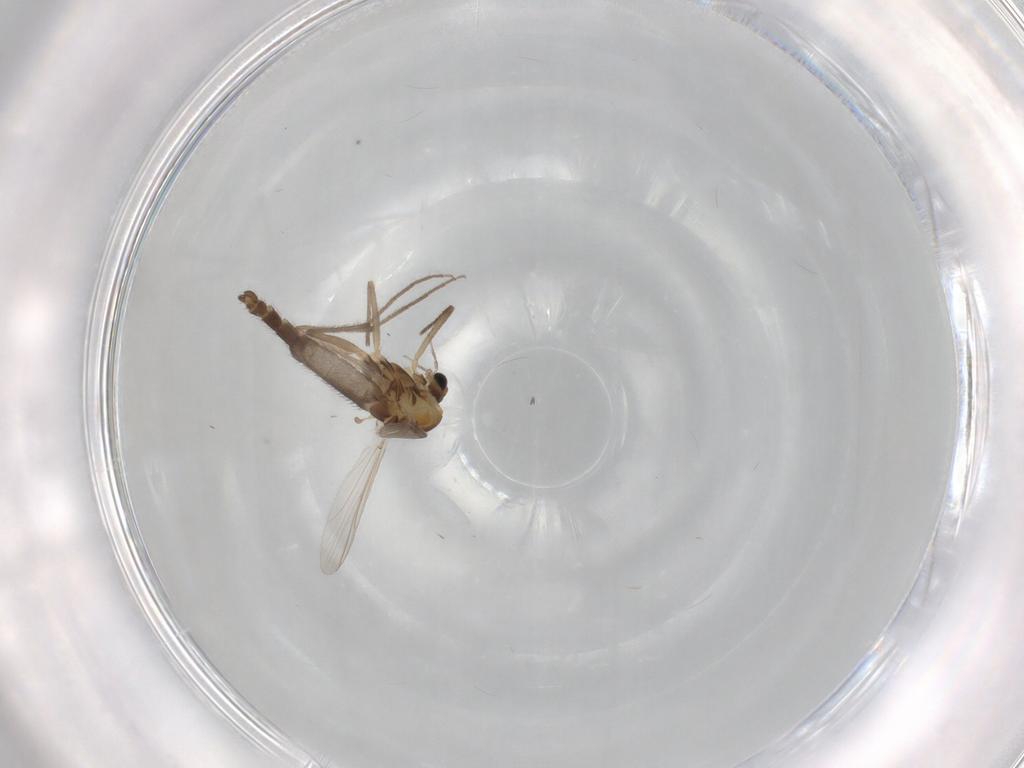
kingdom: Animalia
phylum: Arthropoda
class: Insecta
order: Diptera
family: Chironomidae
